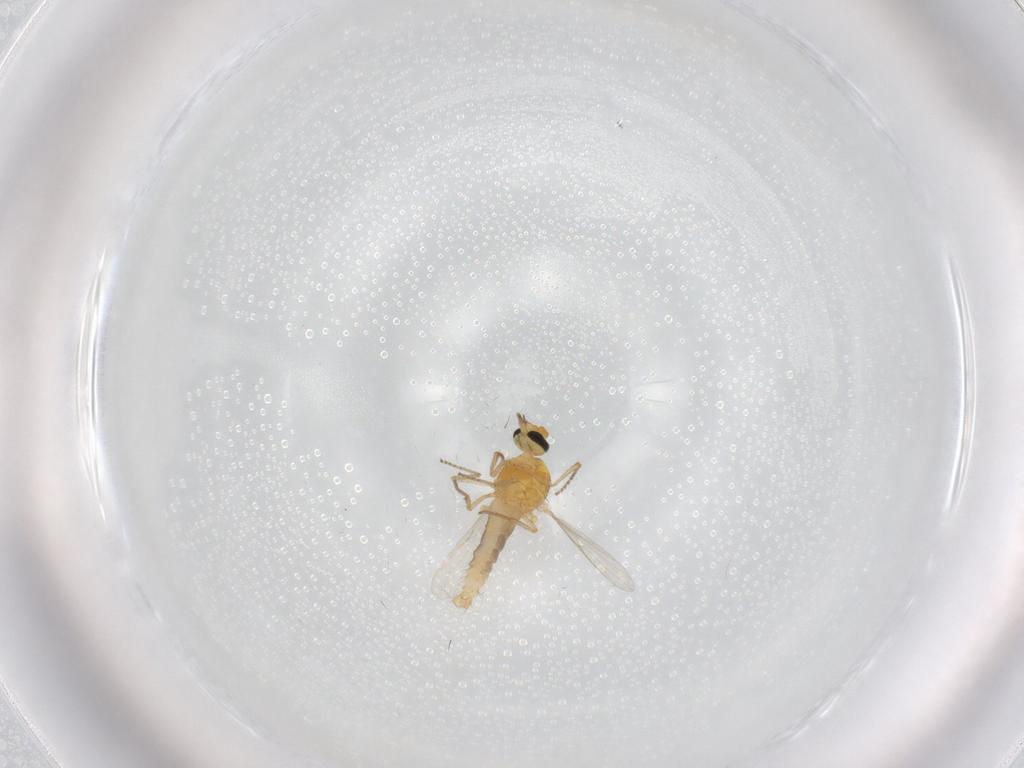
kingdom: Animalia
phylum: Arthropoda
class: Insecta
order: Diptera
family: Ceratopogonidae
